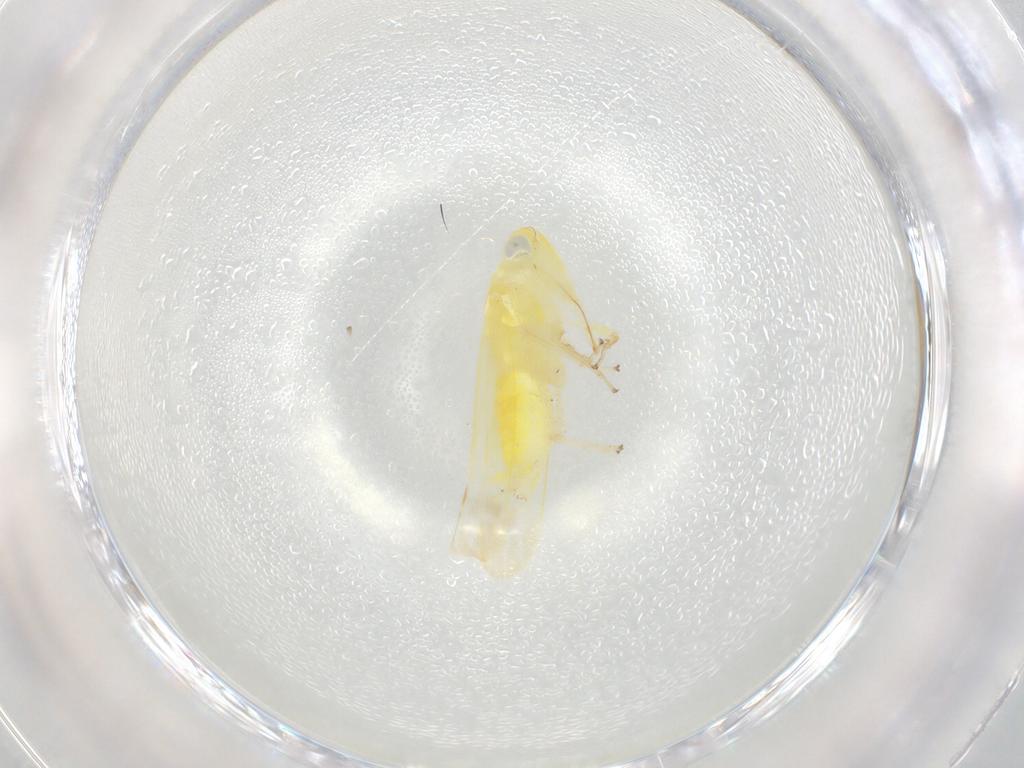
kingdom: Animalia
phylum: Arthropoda
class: Insecta
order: Hemiptera
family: Cicadellidae
